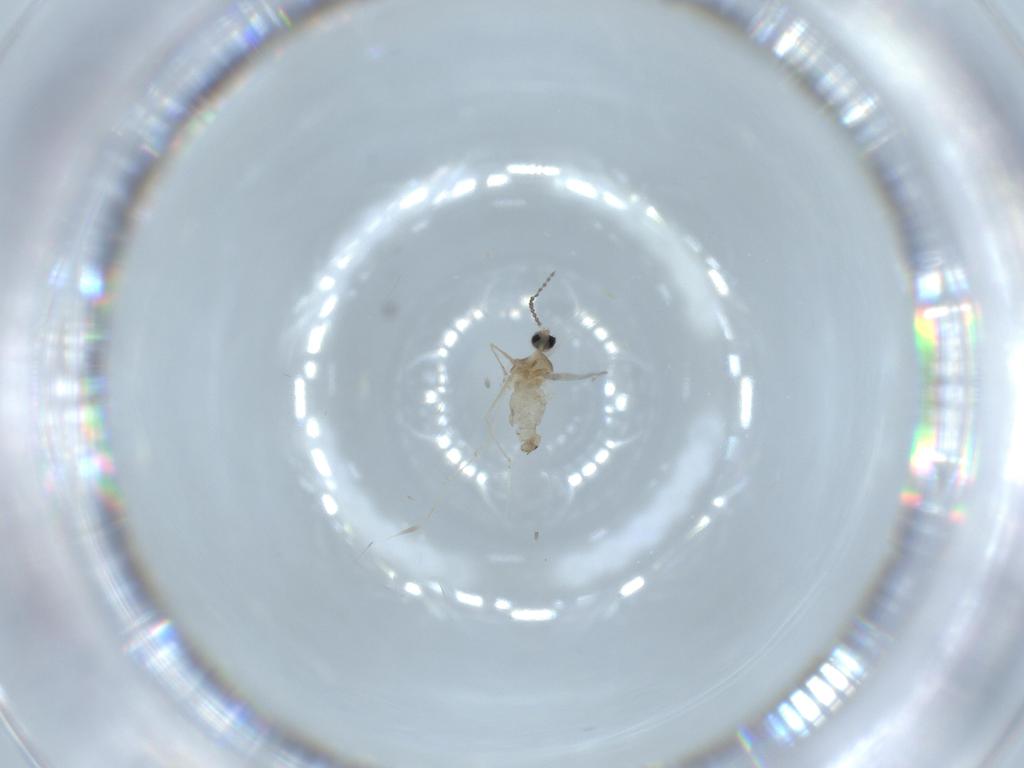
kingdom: Animalia
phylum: Arthropoda
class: Insecta
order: Diptera
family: Cecidomyiidae
